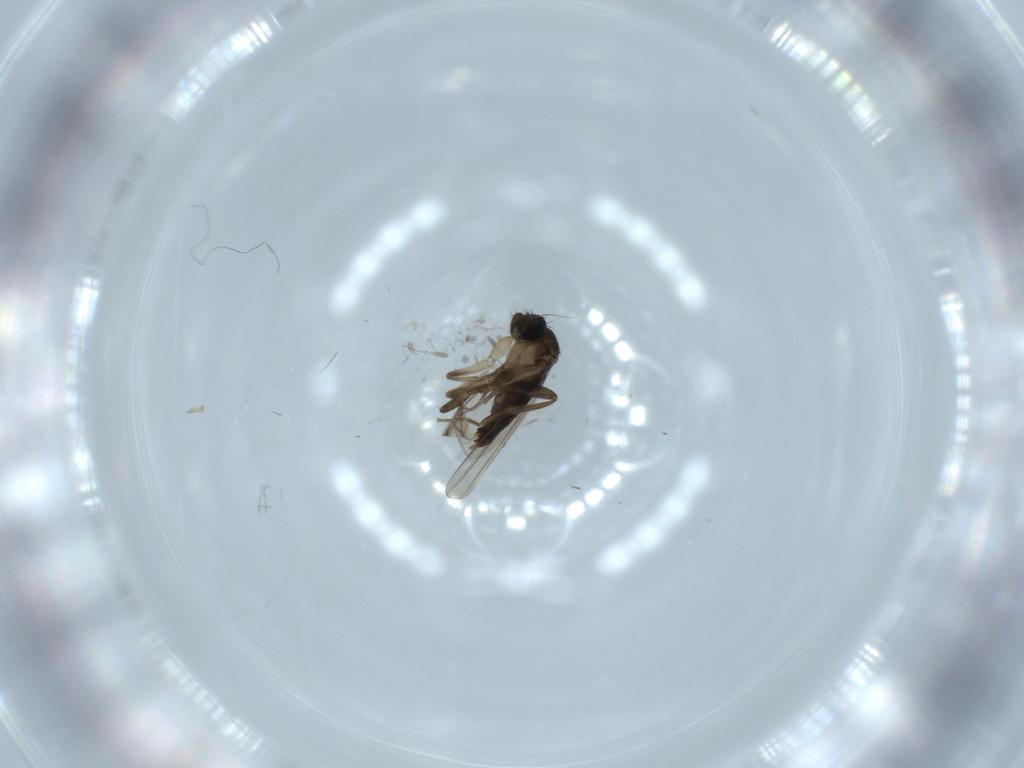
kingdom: Animalia
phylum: Arthropoda
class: Insecta
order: Diptera
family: Phoridae
